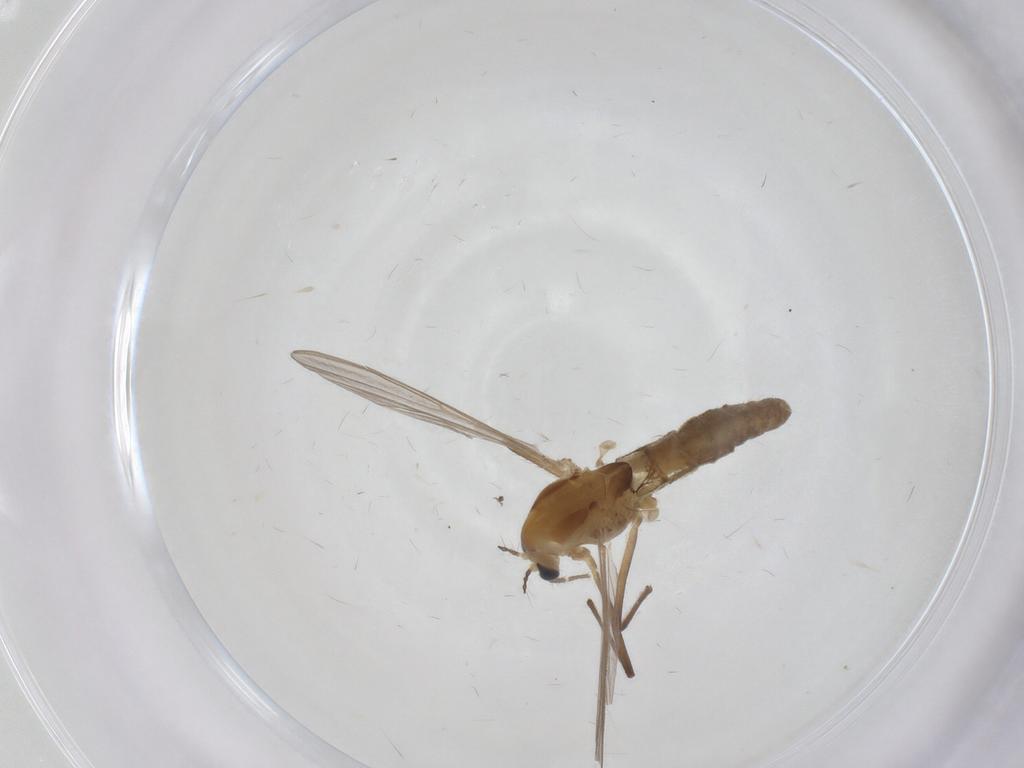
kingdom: Animalia
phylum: Arthropoda
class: Insecta
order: Diptera
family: Chironomidae
